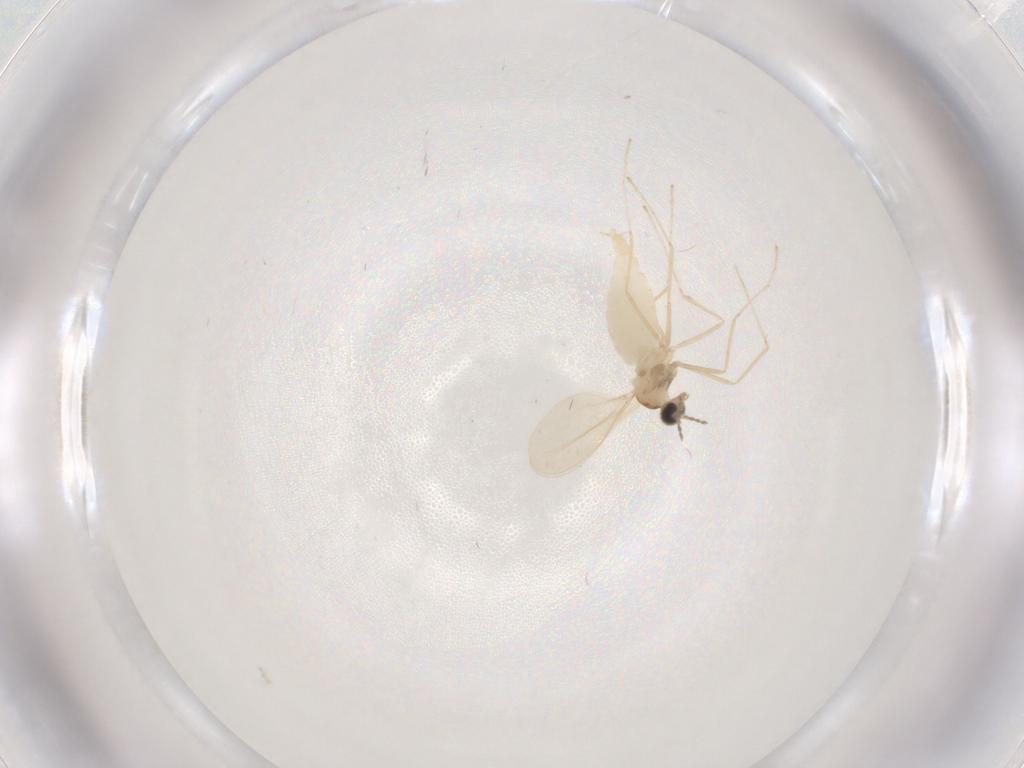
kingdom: Animalia
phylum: Arthropoda
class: Insecta
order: Diptera
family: Cecidomyiidae
